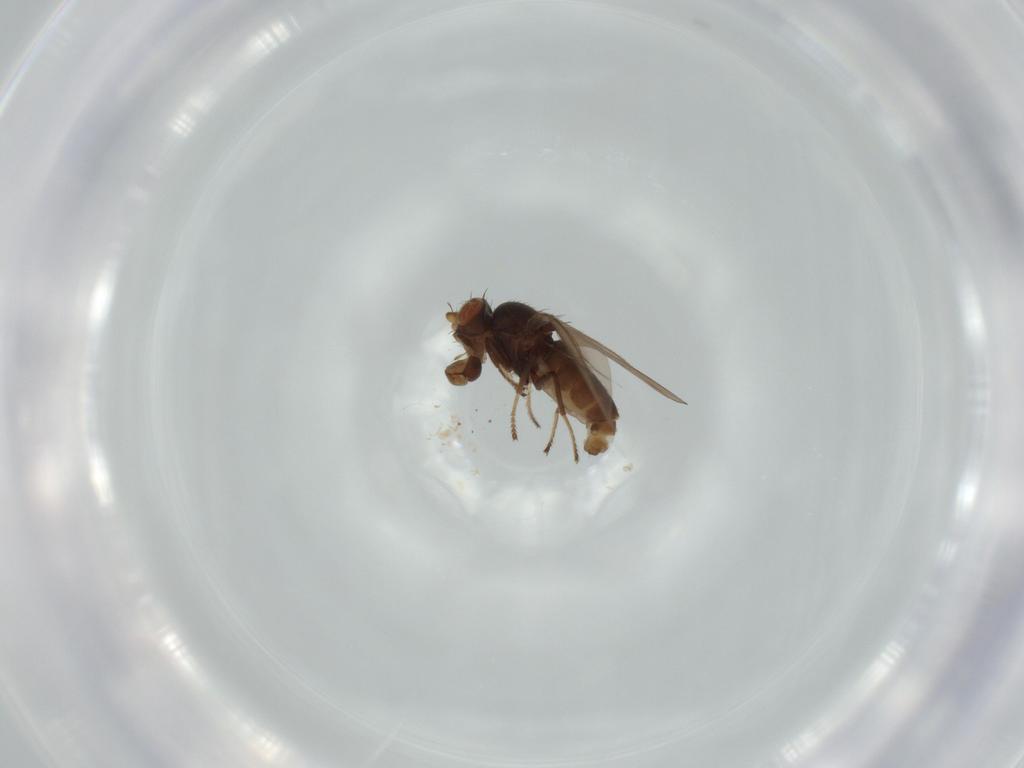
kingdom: Animalia
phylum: Arthropoda
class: Insecta
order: Diptera
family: Ephydridae
